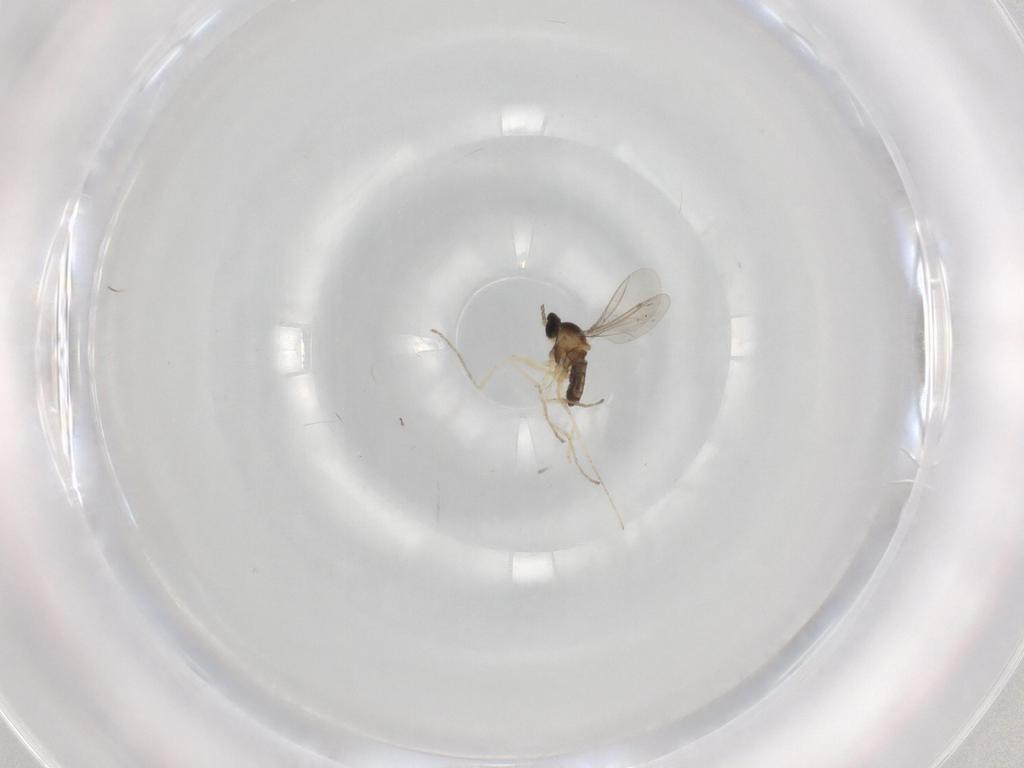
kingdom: Animalia
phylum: Arthropoda
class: Insecta
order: Diptera
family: Cecidomyiidae
